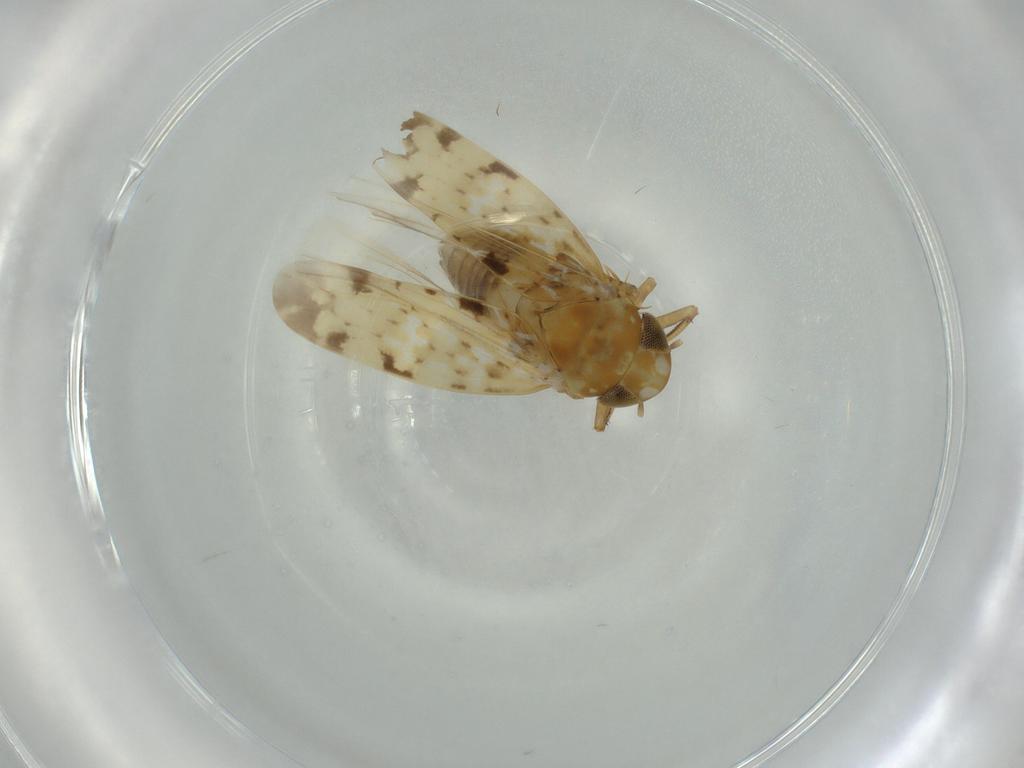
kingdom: Animalia
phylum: Arthropoda
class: Insecta
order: Hemiptera
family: Cicadellidae
